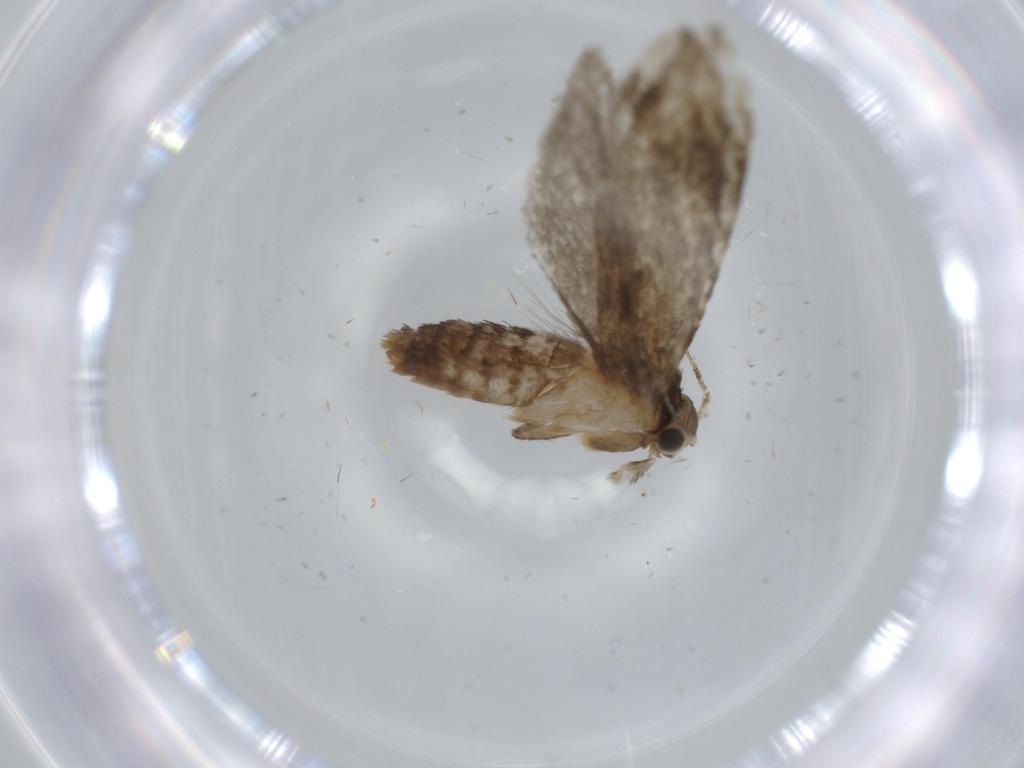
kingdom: Animalia
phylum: Arthropoda
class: Insecta
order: Lepidoptera
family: Tineidae
